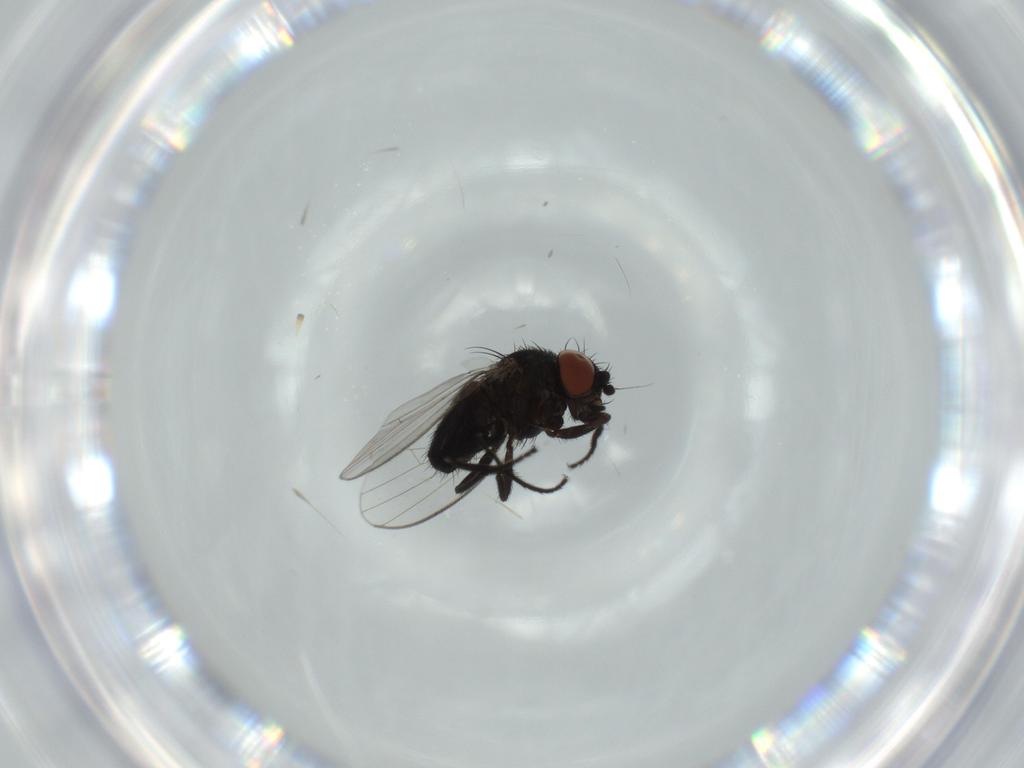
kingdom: Animalia
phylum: Arthropoda
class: Insecta
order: Diptera
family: Milichiidae
